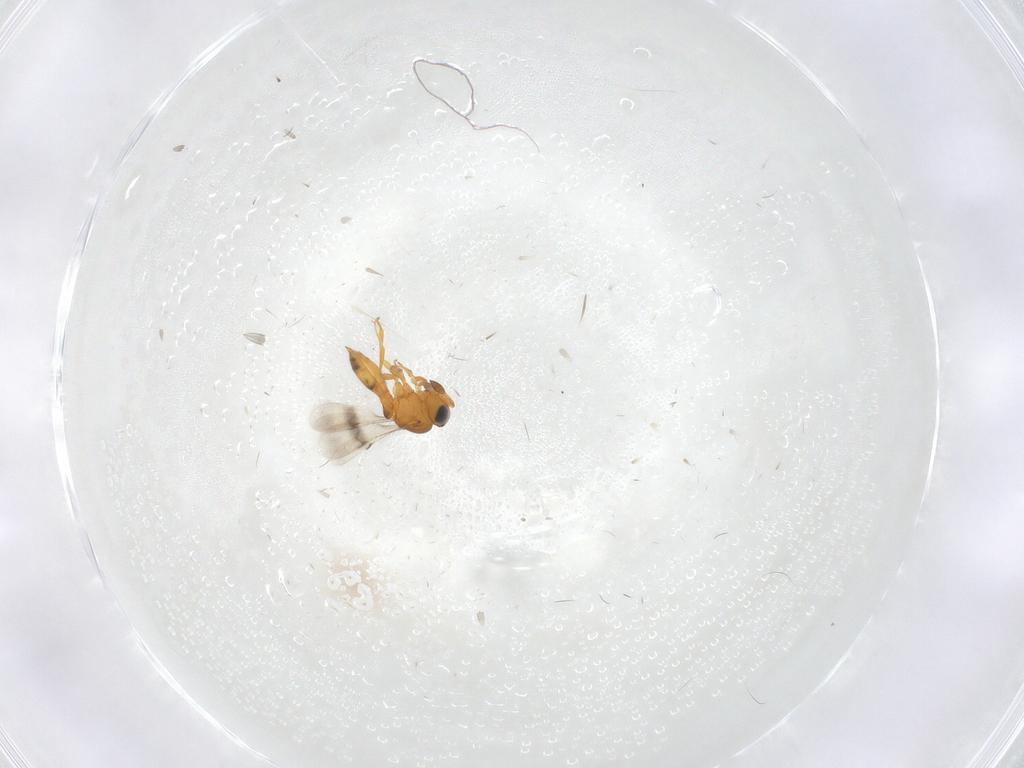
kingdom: Animalia
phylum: Arthropoda
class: Insecta
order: Hymenoptera
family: Scelionidae
